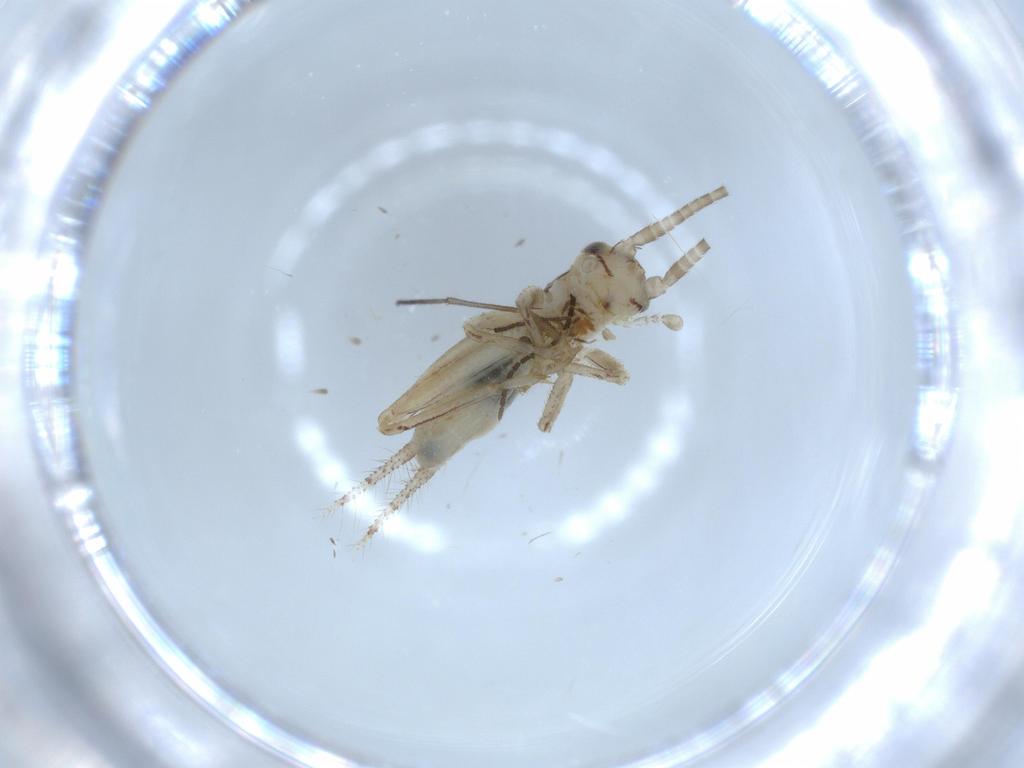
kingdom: Animalia
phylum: Arthropoda
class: Insecta
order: Orthoptera
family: Gryllidae
